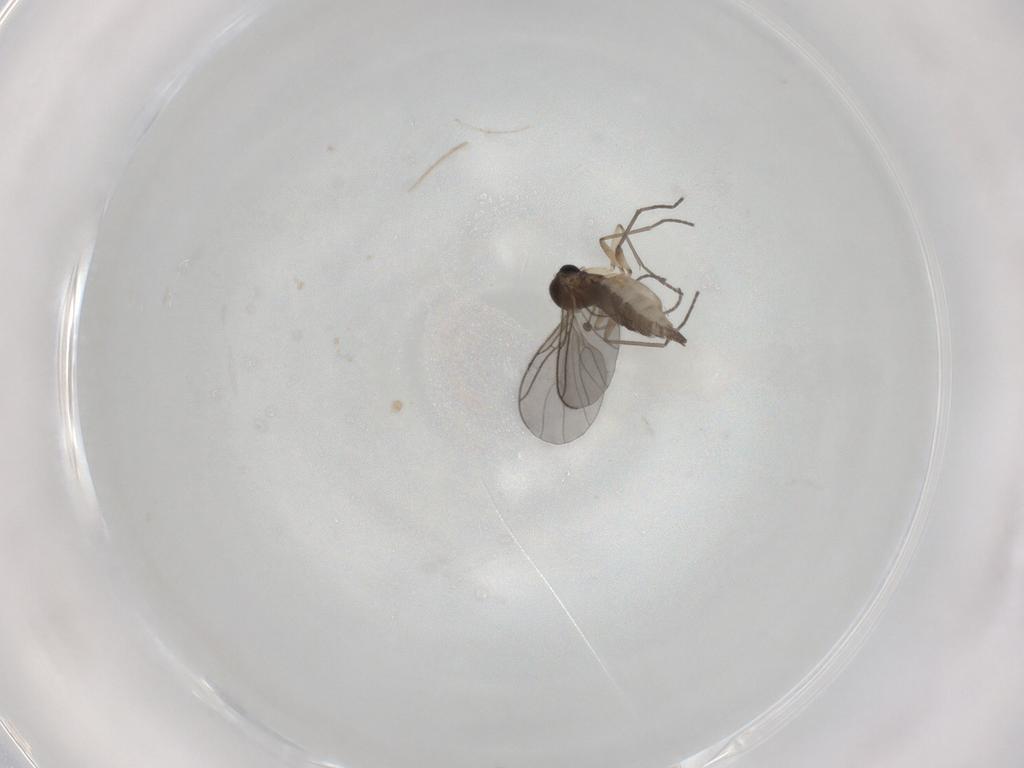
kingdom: Animalia
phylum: Arthropoda
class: Insecta
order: Diptera
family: Sciaridae
